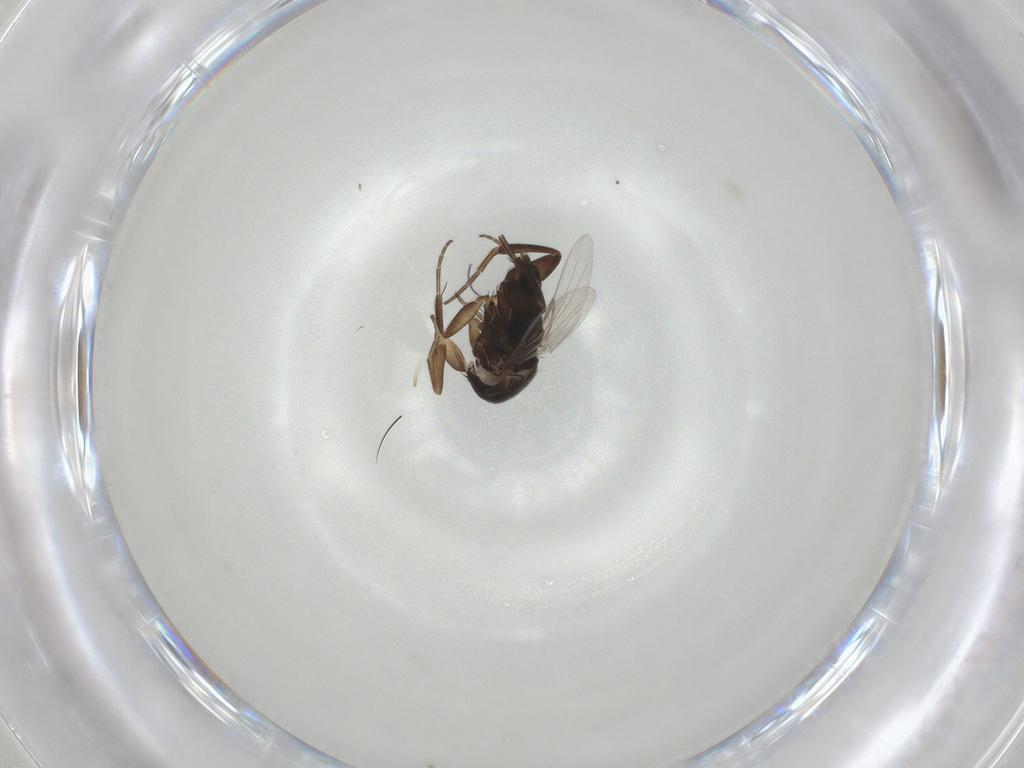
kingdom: Animalia
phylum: Arthropoda
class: Insecta
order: Diptera
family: Phoridae
